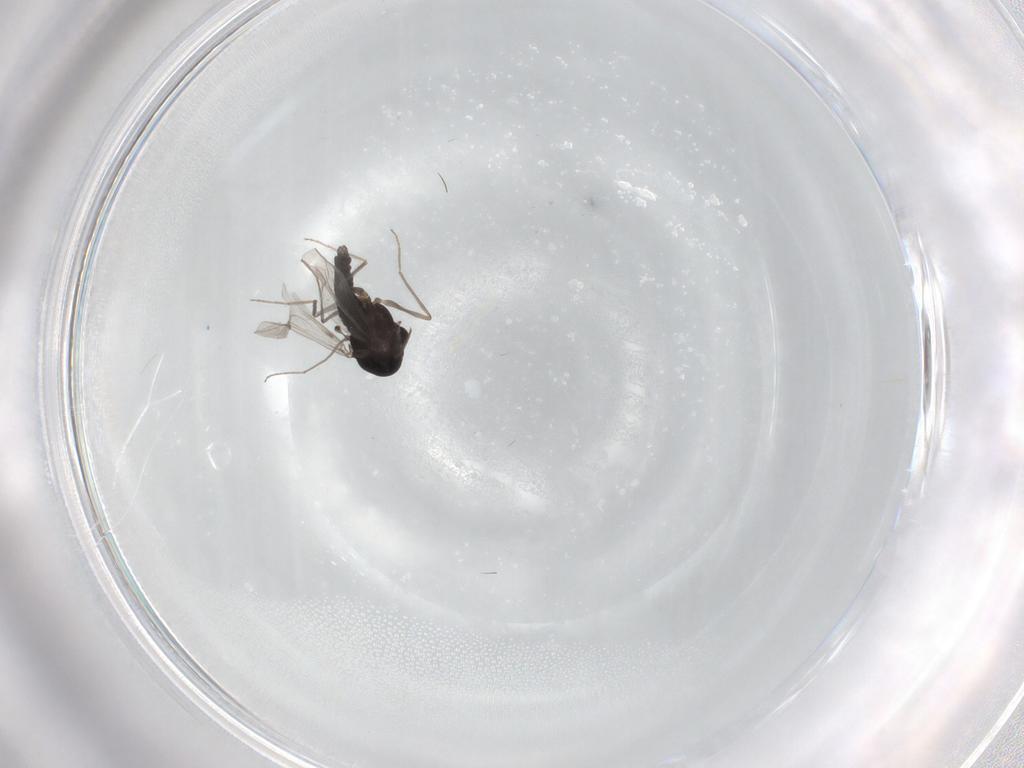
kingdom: Animalia
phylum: Arthropoda
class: Insecta
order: Diptera
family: Chironomidae
